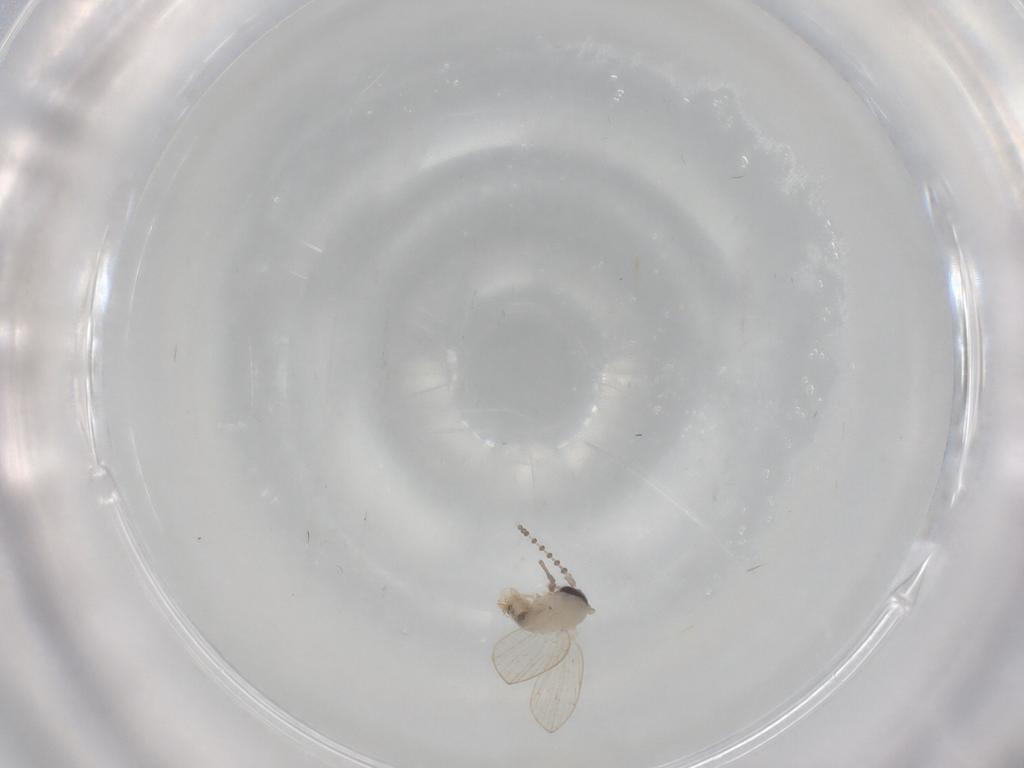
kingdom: Animalia
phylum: Arthropoda
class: Insecta
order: Diptera
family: Psychodidae
